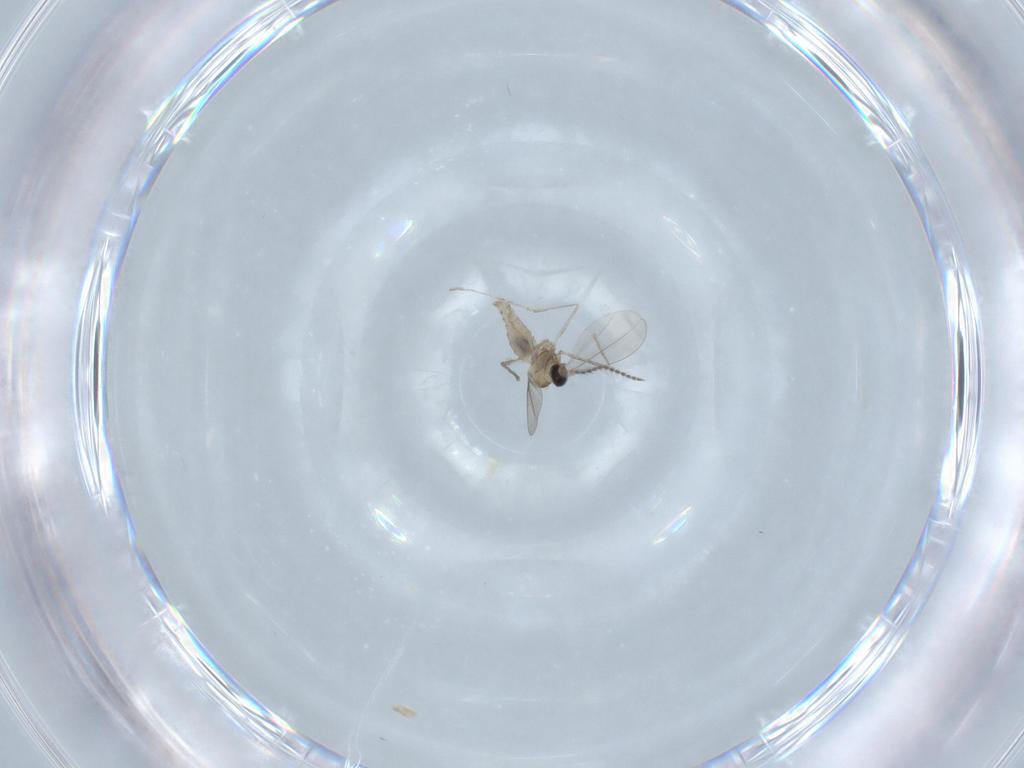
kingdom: Animalia
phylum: Arthropoda
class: Insecta
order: Diptera
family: Cecidomyiidae
